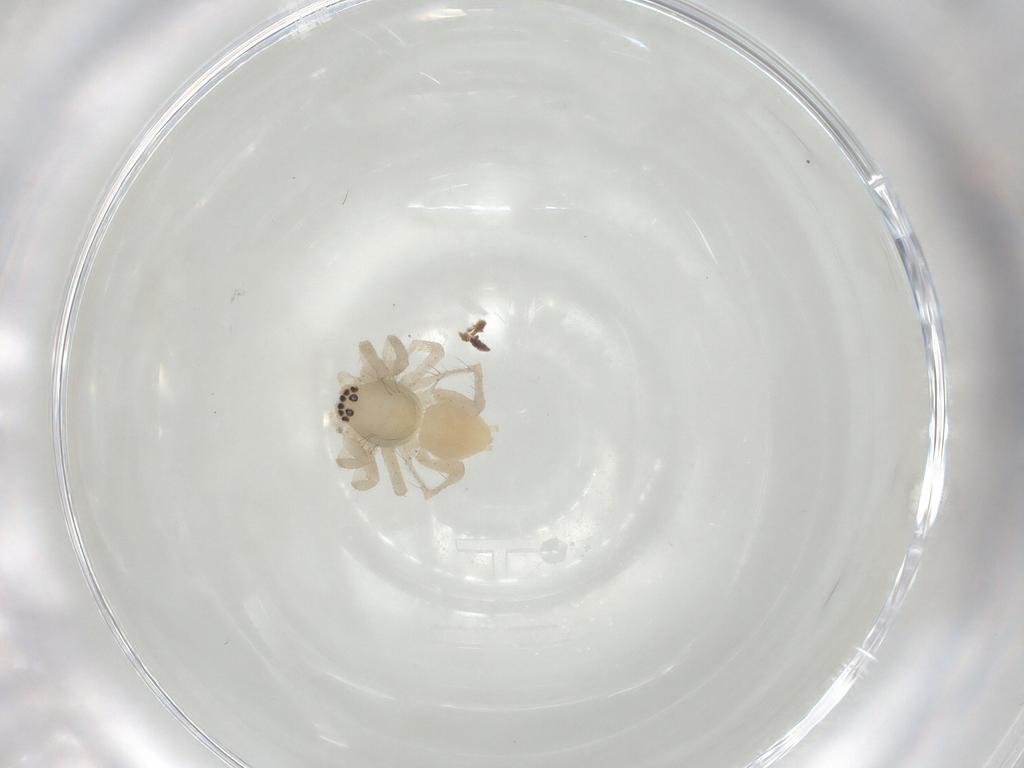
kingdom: Animalia
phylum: Arthropoda
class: Arachnida
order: Araneae
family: Clubionidae
